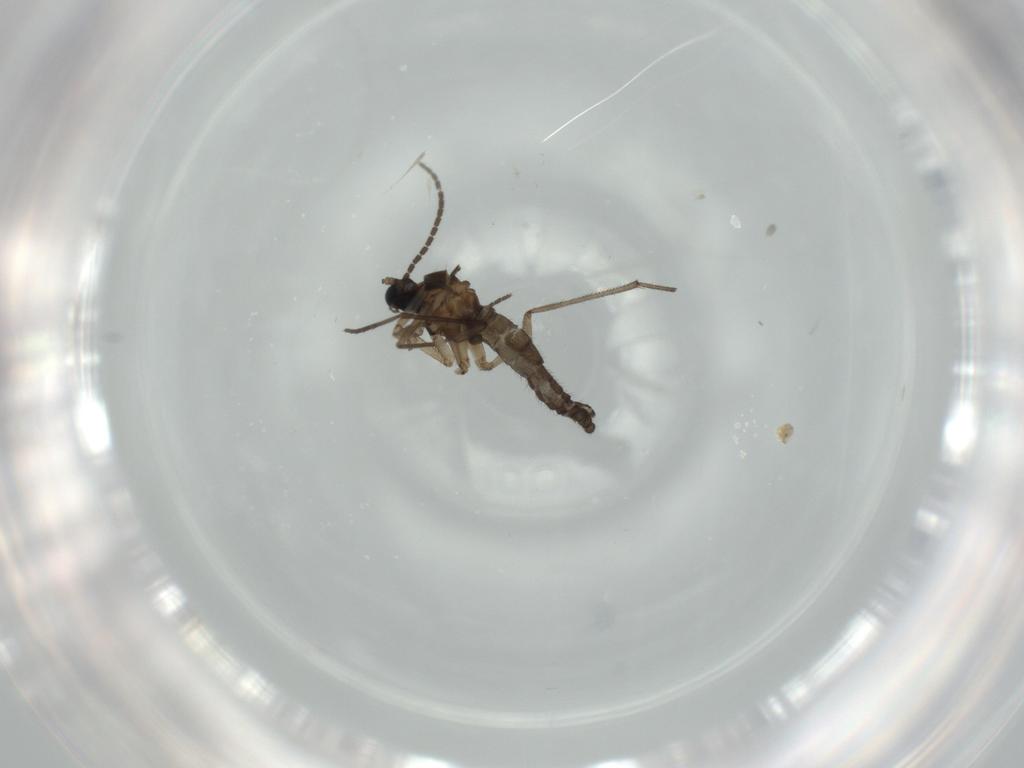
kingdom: Animalia
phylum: Arthropoda
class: Insecta
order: Diptera
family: Sciaridae
